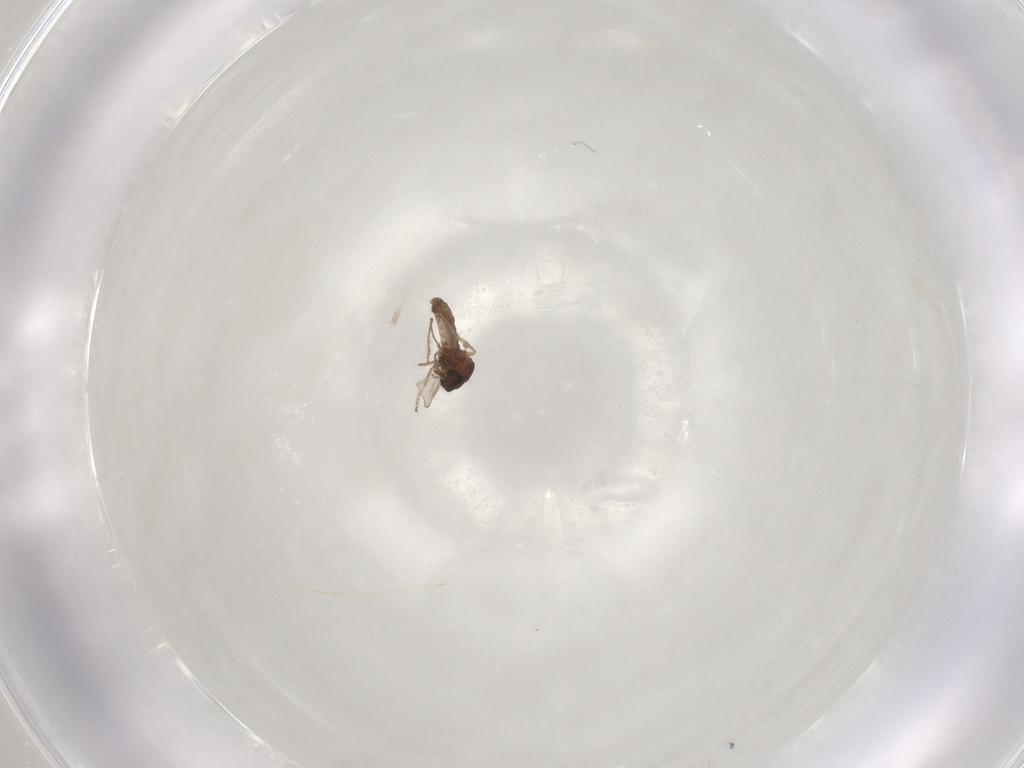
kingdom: Animalia
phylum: Arthropoda
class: Insecta
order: Diptera
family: Ceratopogonidae
